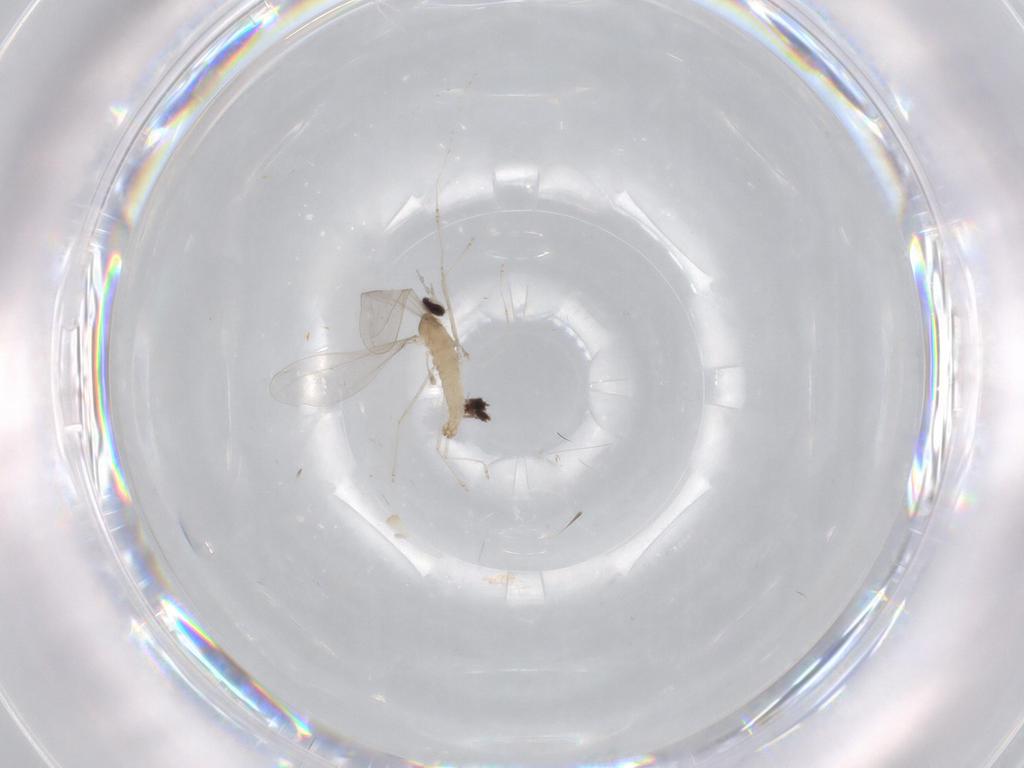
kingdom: Animalia
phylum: Arthropoda
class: Insecta
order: Diptera
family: Cecidomyiidae
